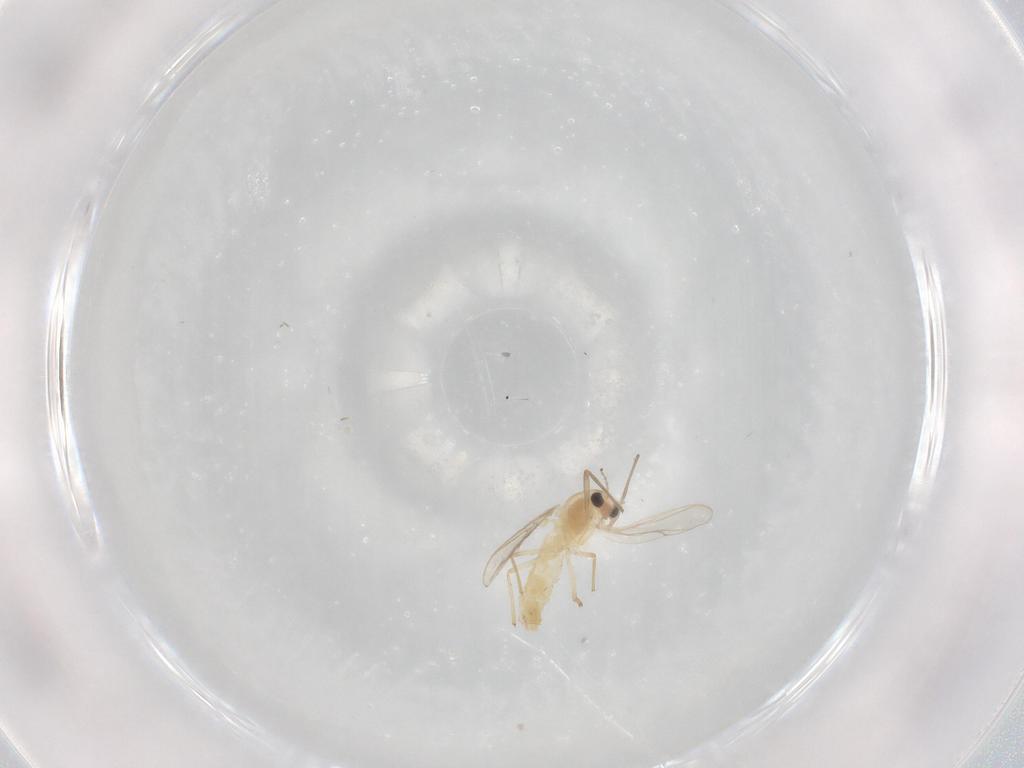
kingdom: Animalia
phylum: Arthropoda
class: Insecta
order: Diptera
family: Chironomidae
